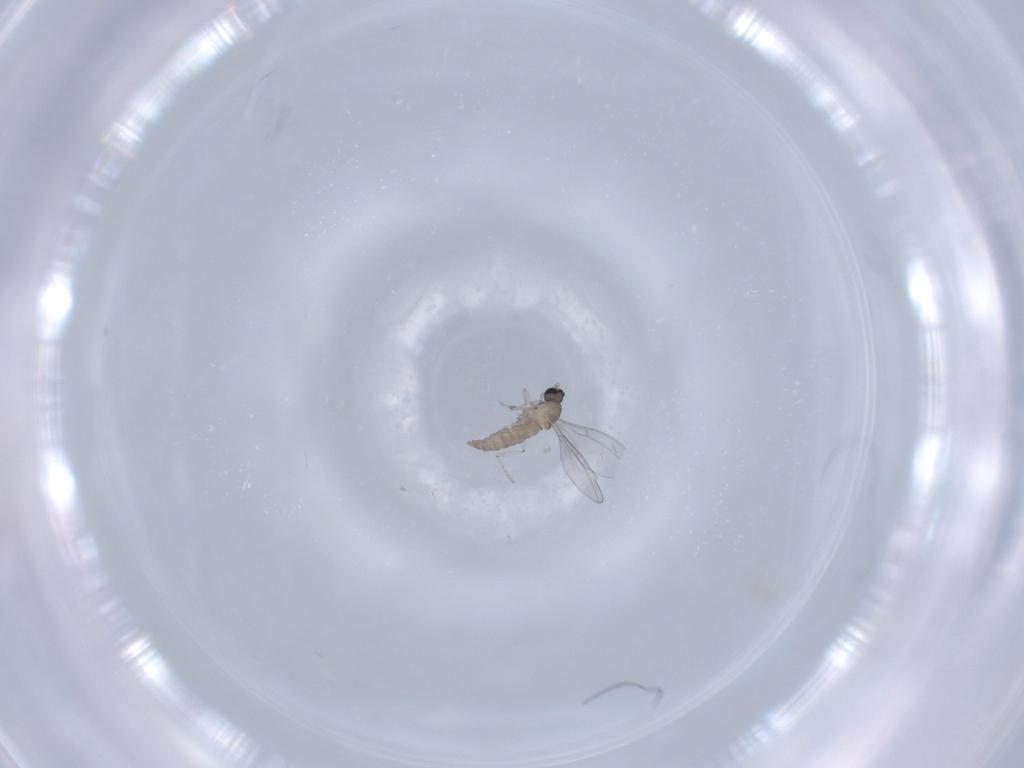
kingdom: Animalia
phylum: Arthropoda
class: Insecta
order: Diptera
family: Cecidomyiidae
